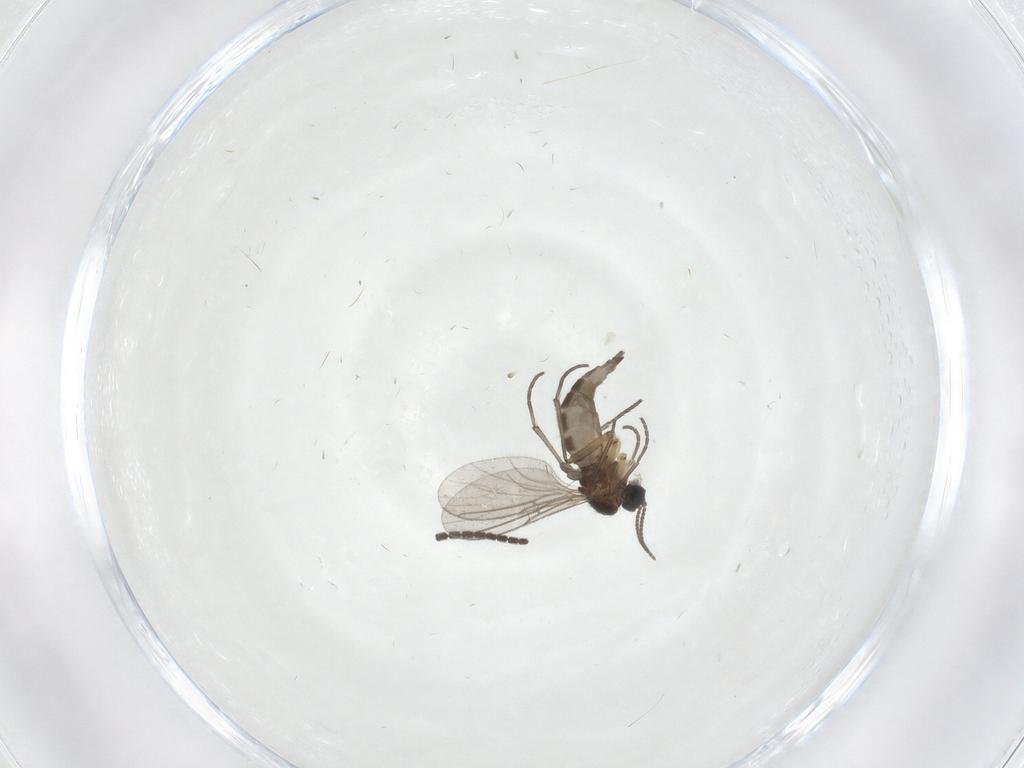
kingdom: Animalia
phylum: Arthropoda
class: Insecta
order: Diptera
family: Sciaridae
